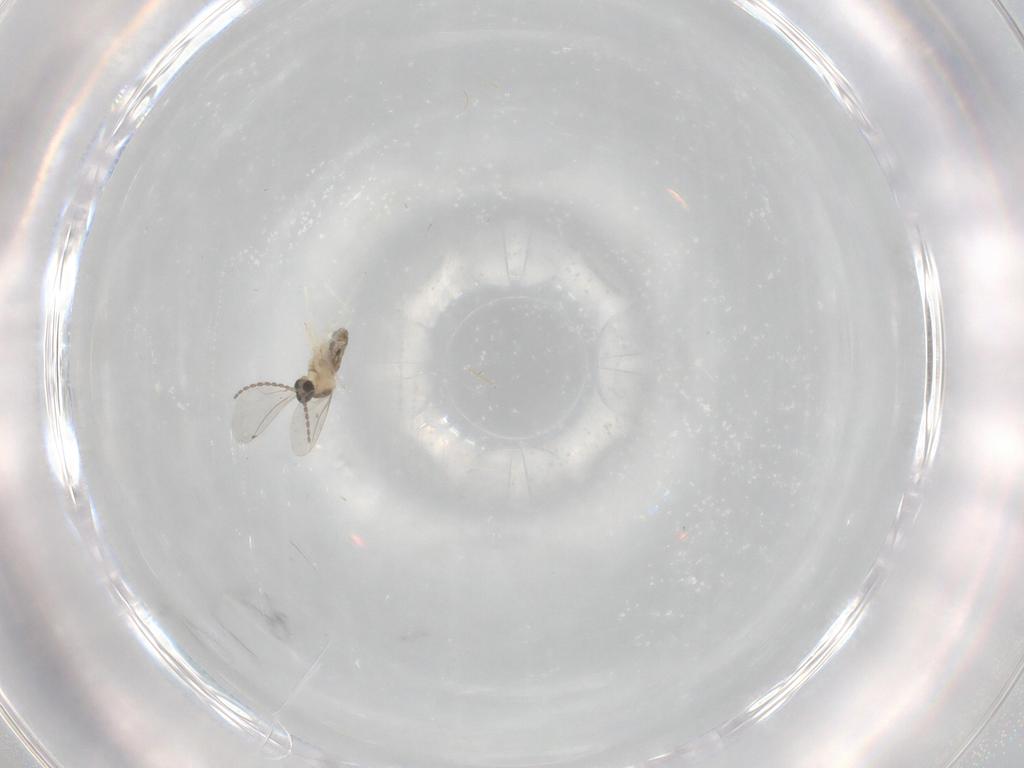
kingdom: Animalia
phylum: Arthropoda
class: Insecta
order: Diptera
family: Cecidomyiidae
